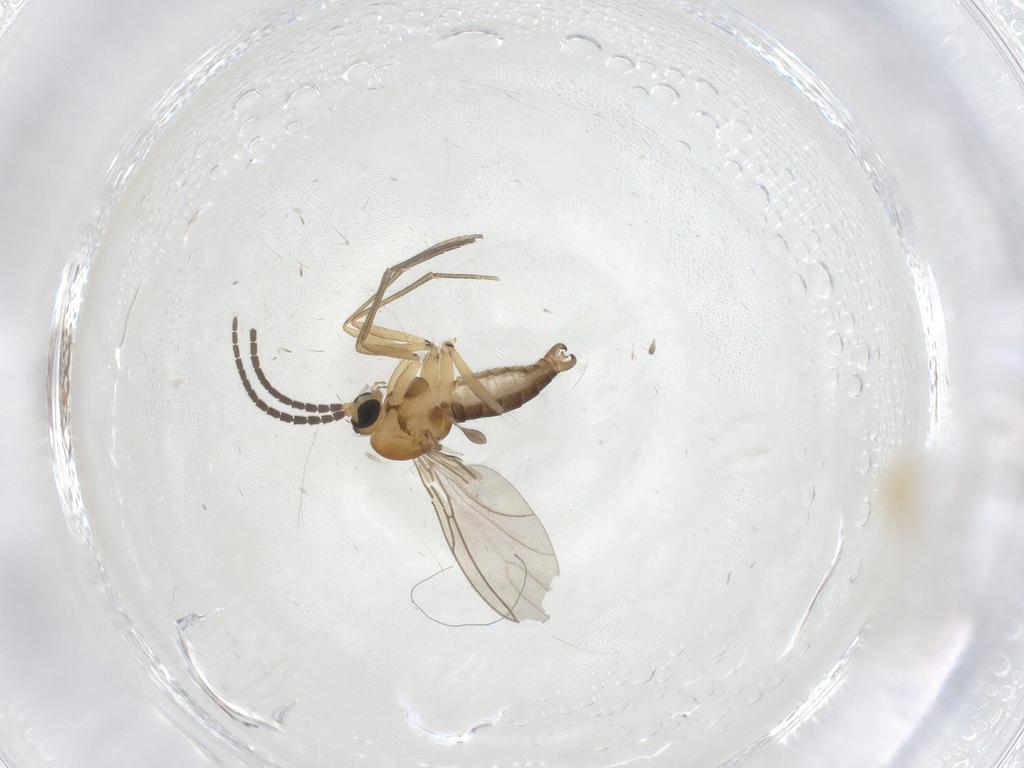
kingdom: Animalia
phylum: Arthropoda
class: Insecta
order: Diptera
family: Cecidomyiidae
